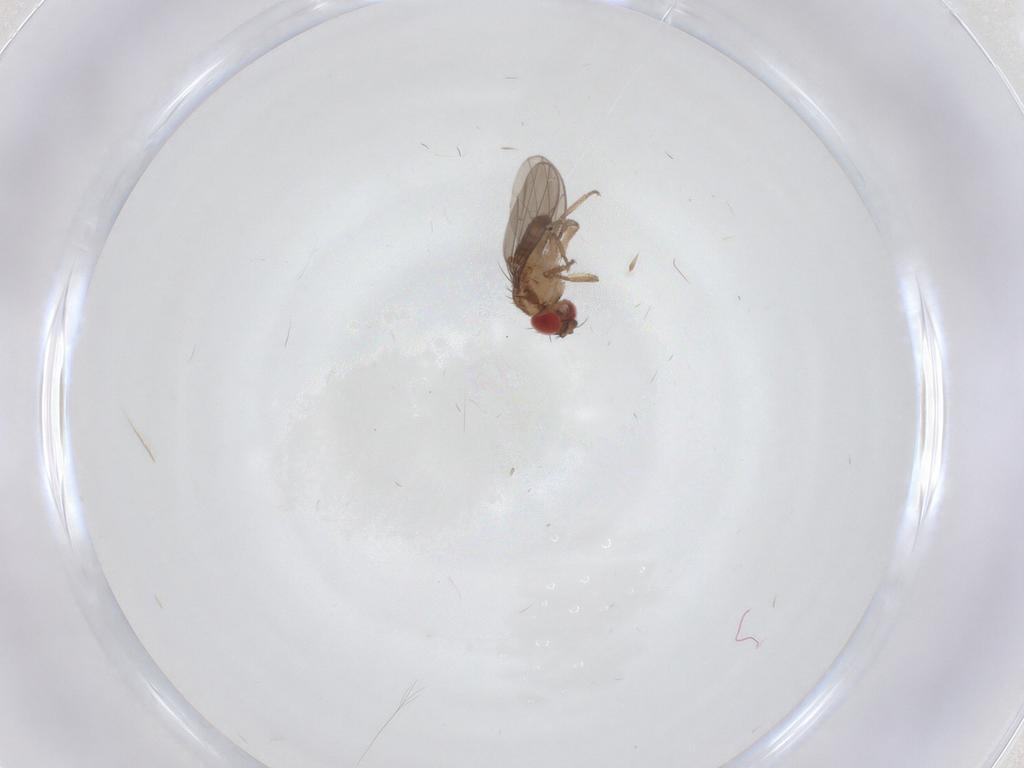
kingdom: Animalia
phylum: Arthropoda
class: Insecta
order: Diptera
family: Drosophilidae
